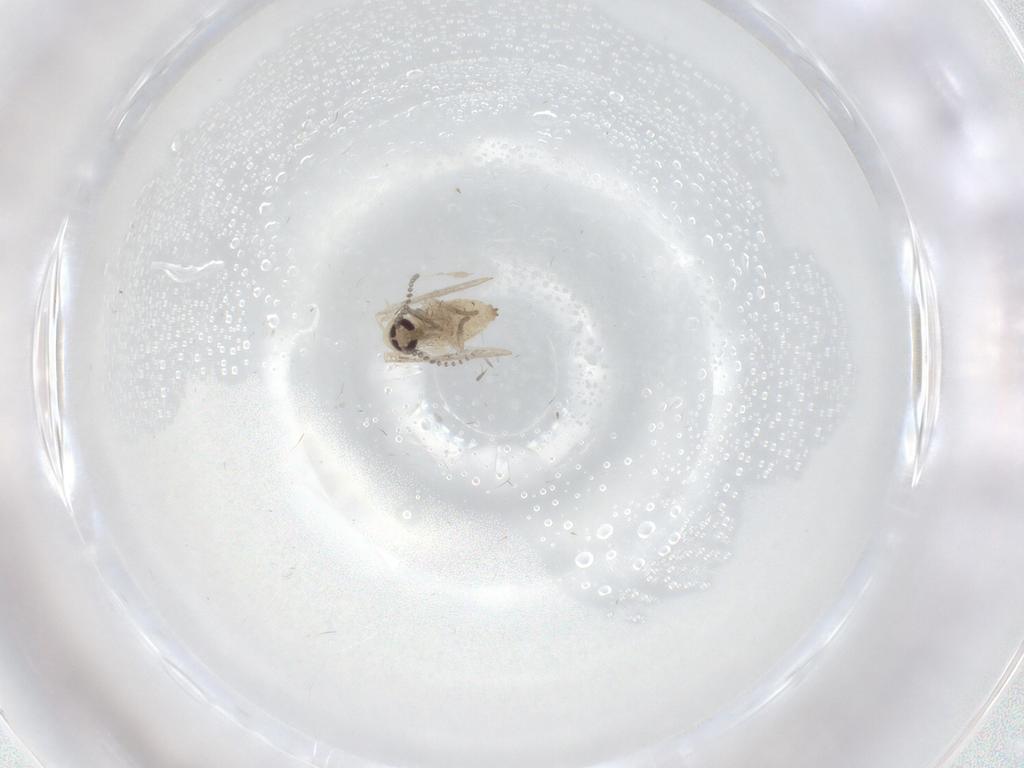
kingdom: Animalia
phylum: Arthropoda
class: Insecta
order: Diptera
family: Psychodidae
